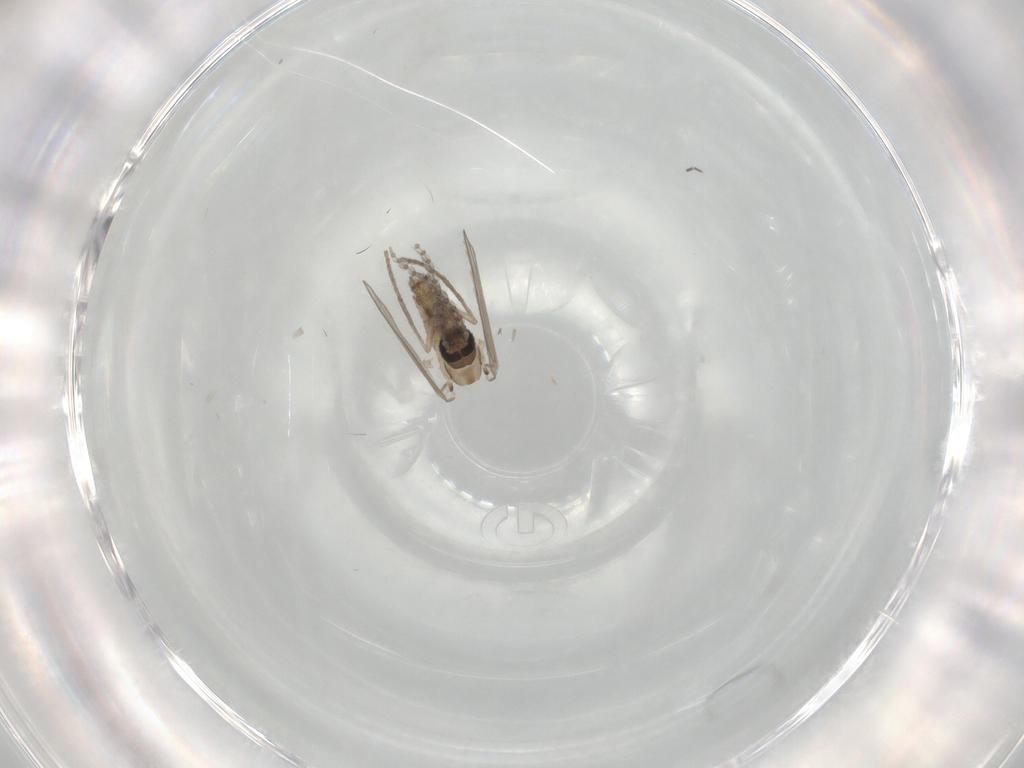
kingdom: Animalia
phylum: Arthropoda
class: Insecta
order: Diptera
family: Psychodidae
